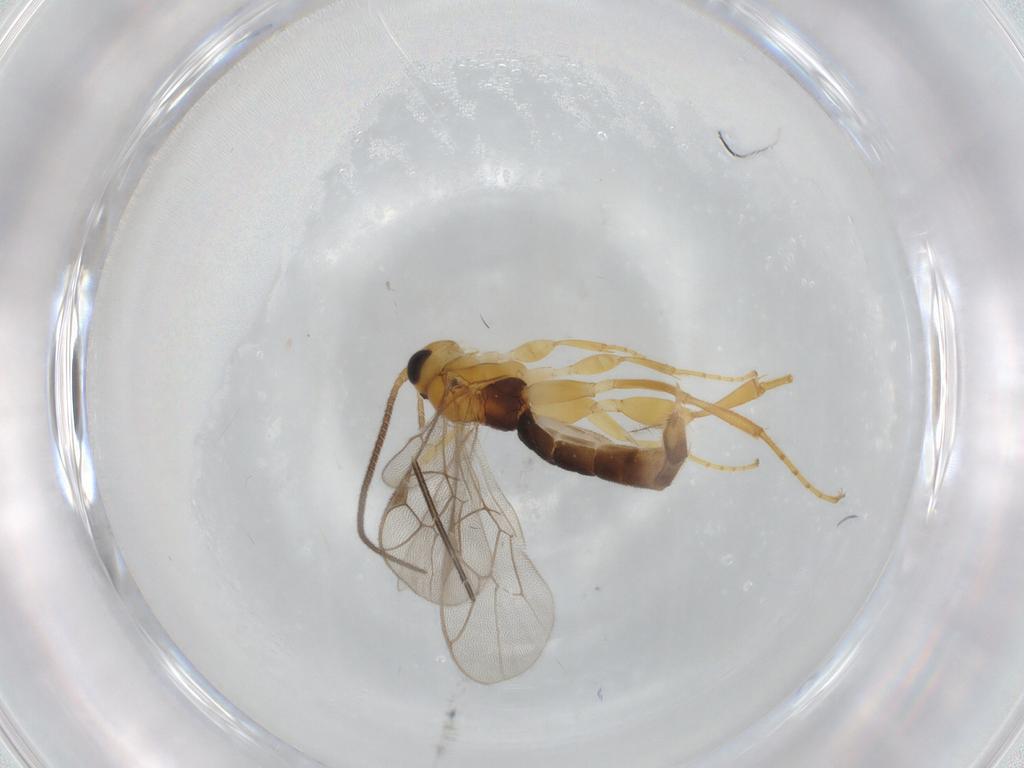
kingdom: Animalia
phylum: Arthropoda
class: Insecta
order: Hymenoptera
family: Ichneumonidae
